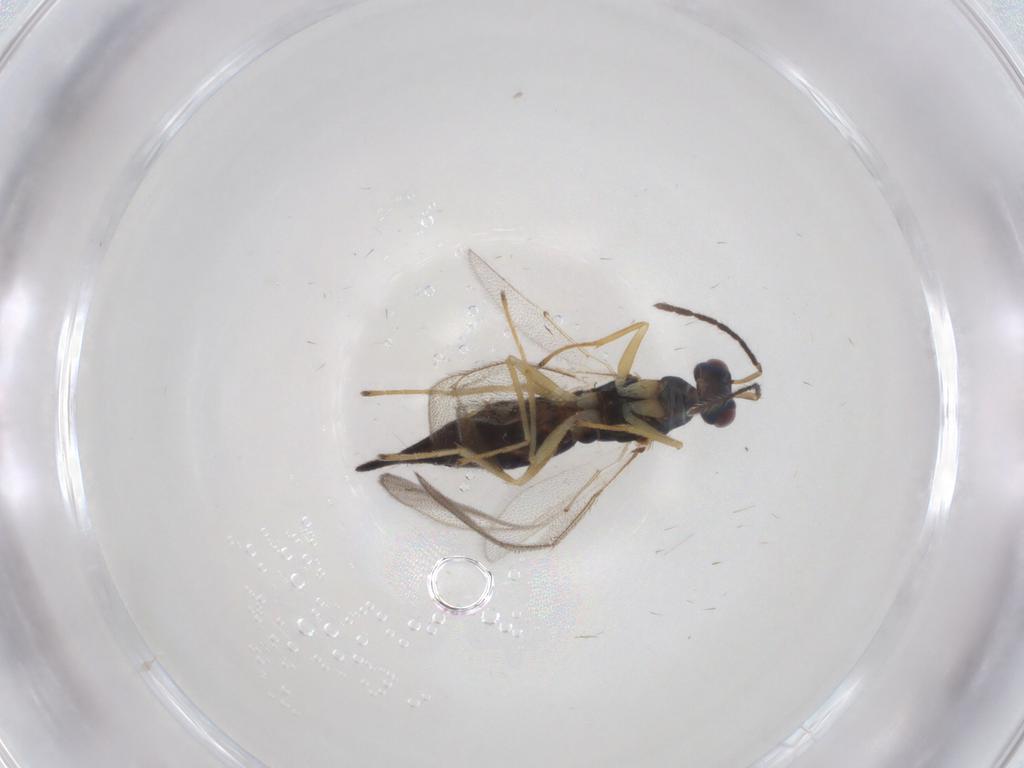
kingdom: Animalia
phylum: Arthropoda
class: Insecta
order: Hymenoptera
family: Eulophidae
